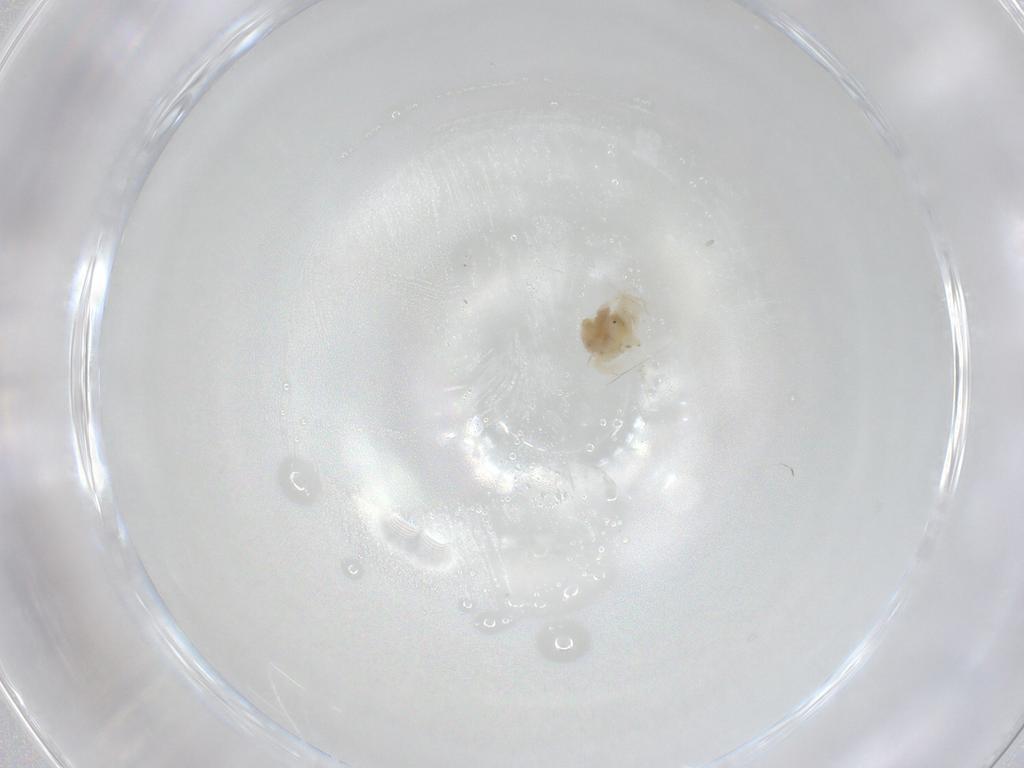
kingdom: Animalia
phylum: Arthropoda
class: Arachnida
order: Trombidiformes
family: Anystidae
